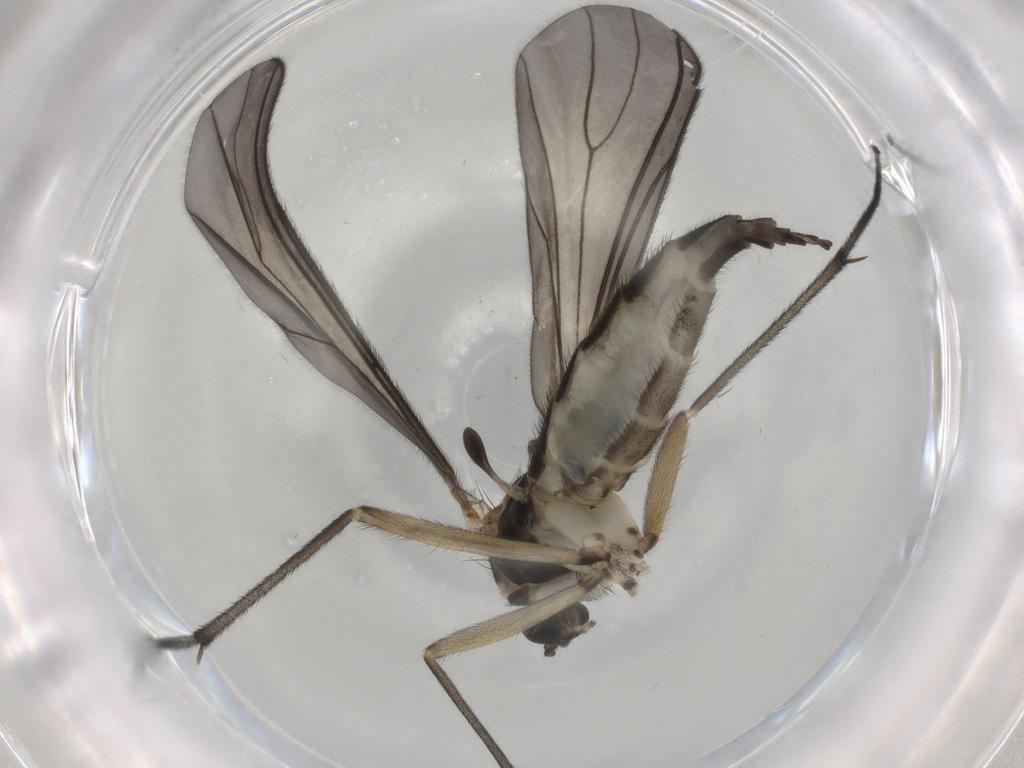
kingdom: Animalia
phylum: Arthropoda
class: Insecta
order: Diptera
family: Sciaridae
